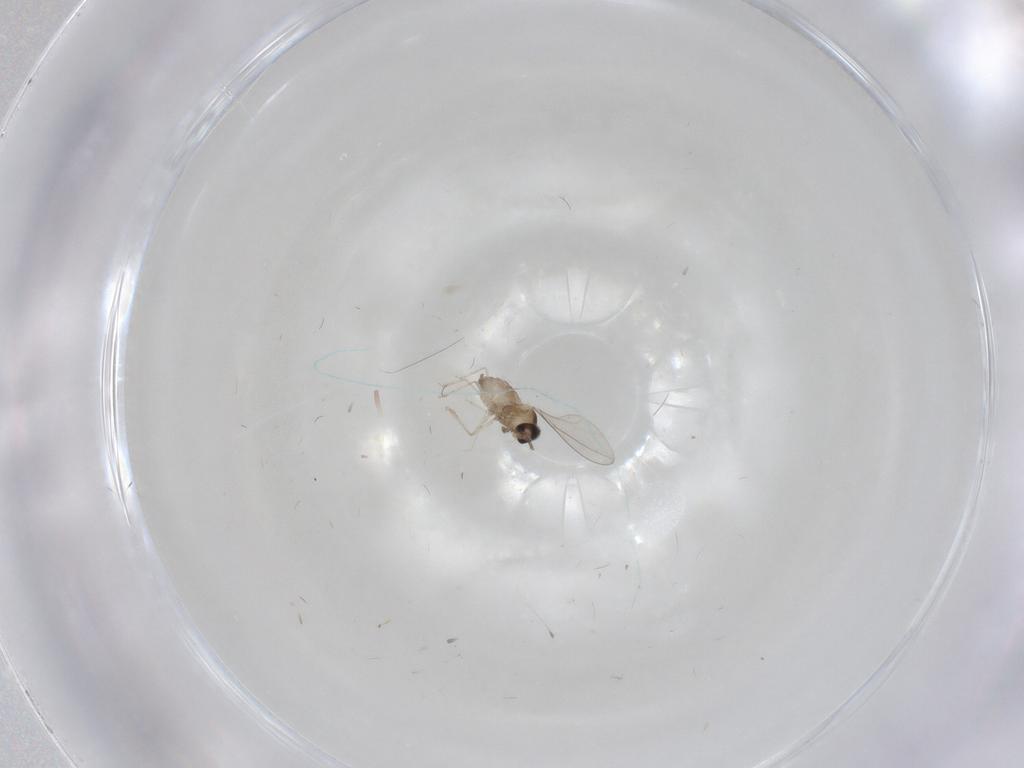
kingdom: Animalia
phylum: Arthropoda
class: Insecta
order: Diptera
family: Cecidomyiidae
